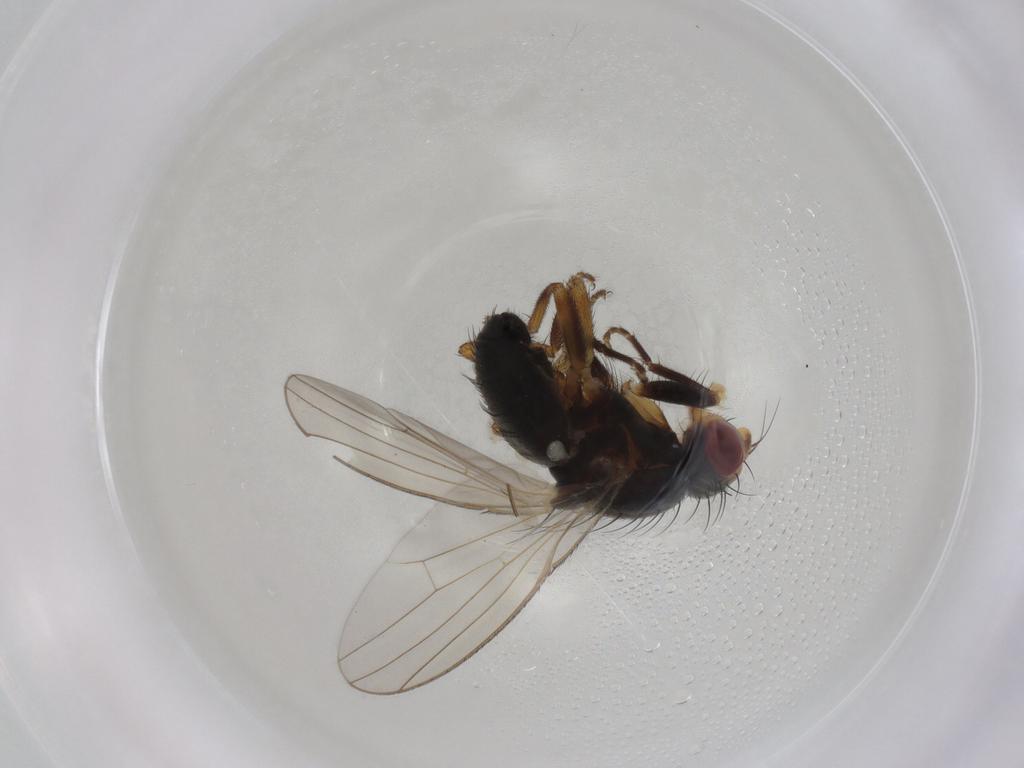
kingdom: Animalia
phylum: Arthropoda
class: Insecta
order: Diptera
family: Heleomyzidae
